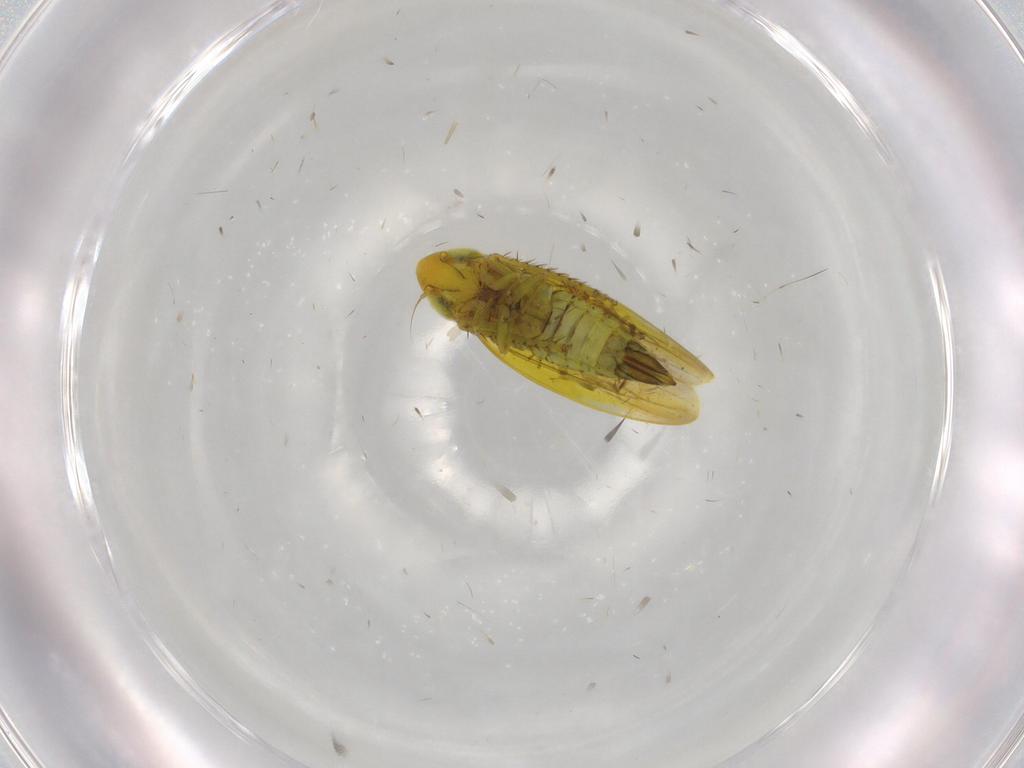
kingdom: Animalia
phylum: Arthropoda
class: Insecta
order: Hemiptera
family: Cicadellidae
